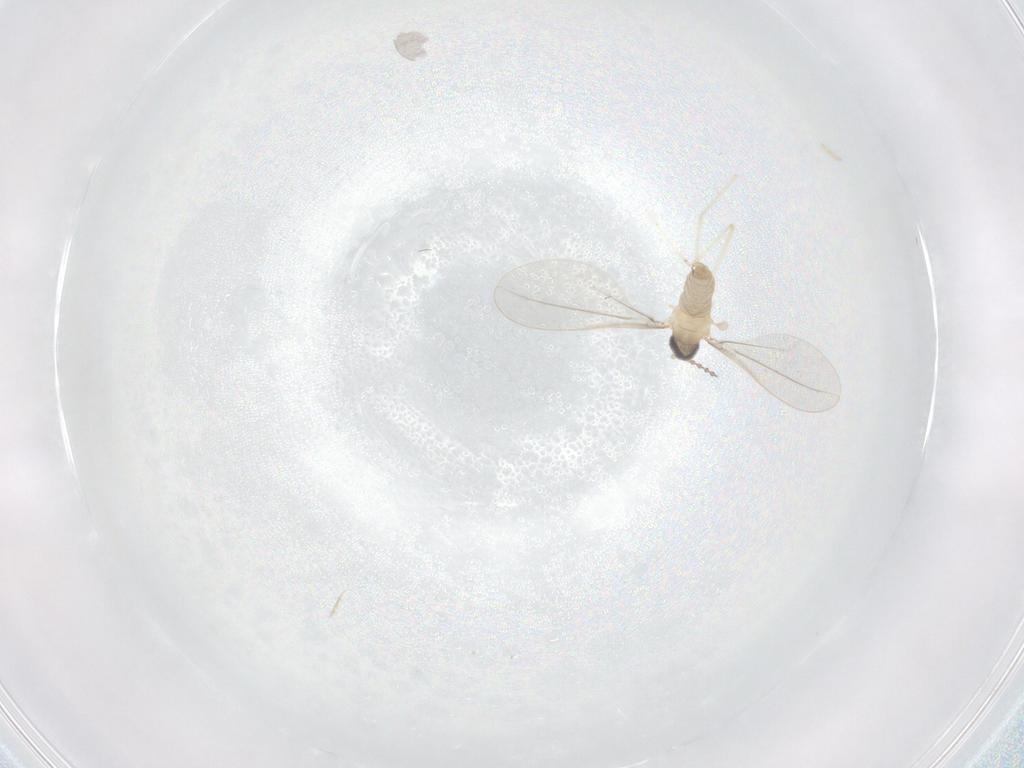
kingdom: Animalia
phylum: Arthropoda
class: Insecta
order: Diptera
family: Cecidomyiidae
